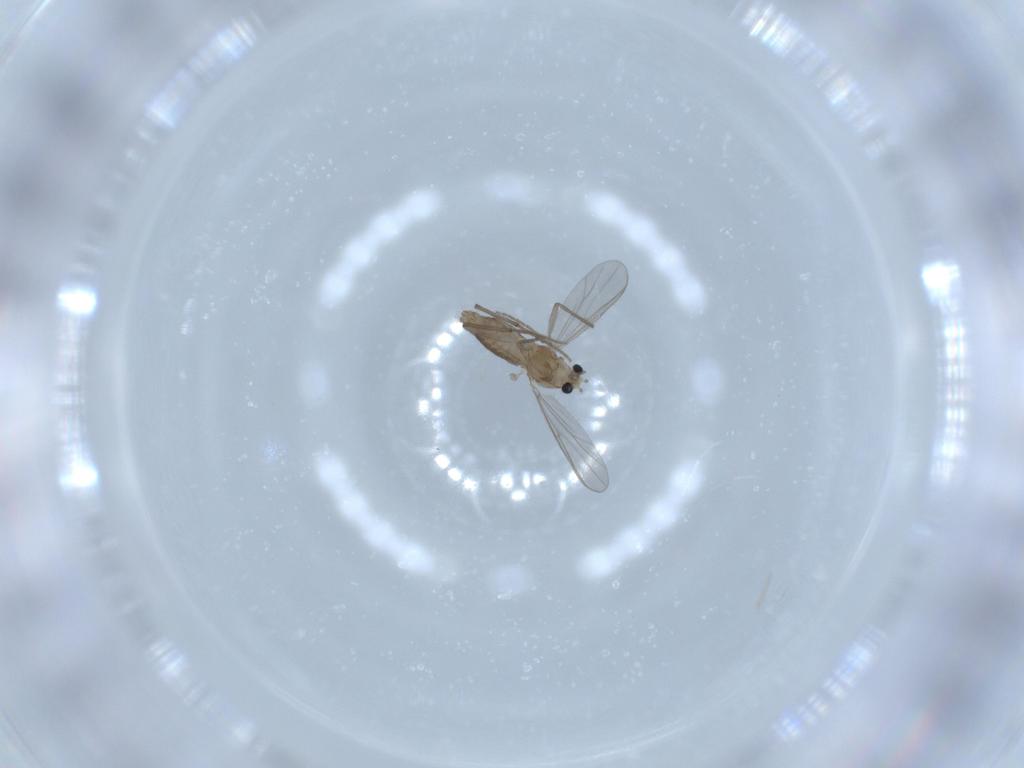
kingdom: Animalia
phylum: Arthropoda
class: Insecta
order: Diptera
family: Chironomidae
